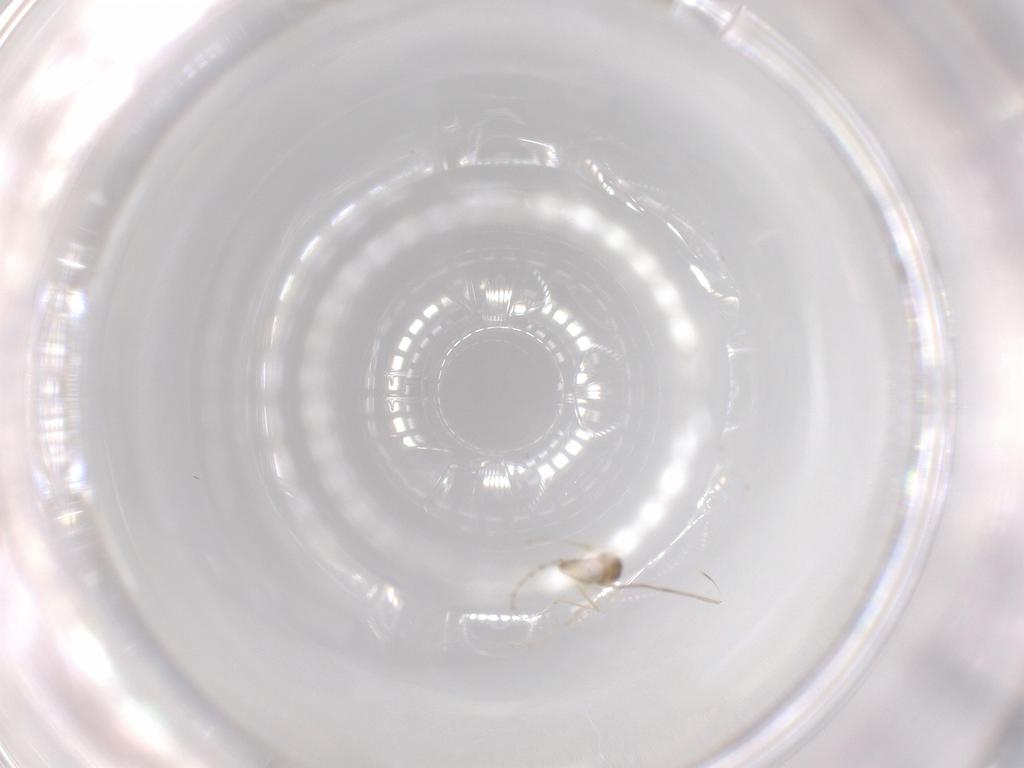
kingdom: Animalia
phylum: Arthropoda
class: Insecta
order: Diptera
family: Cecidomyiidae
